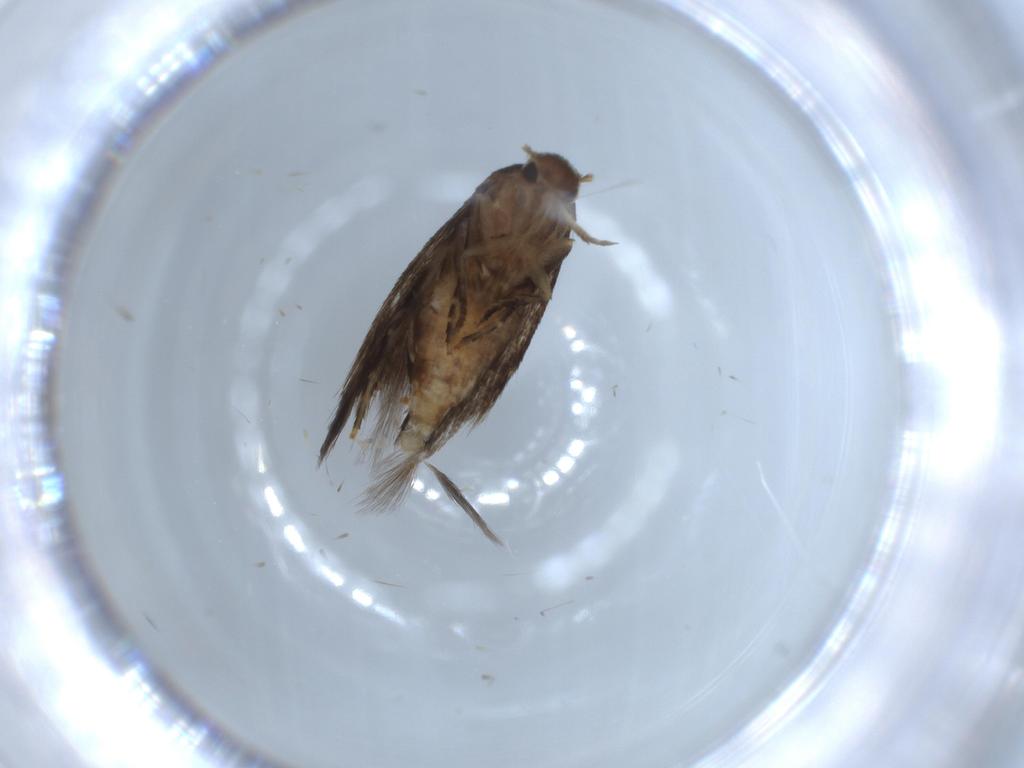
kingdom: Animalia
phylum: Arthropoda
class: Insecta
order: Lepidoptera
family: Gelechiidae
